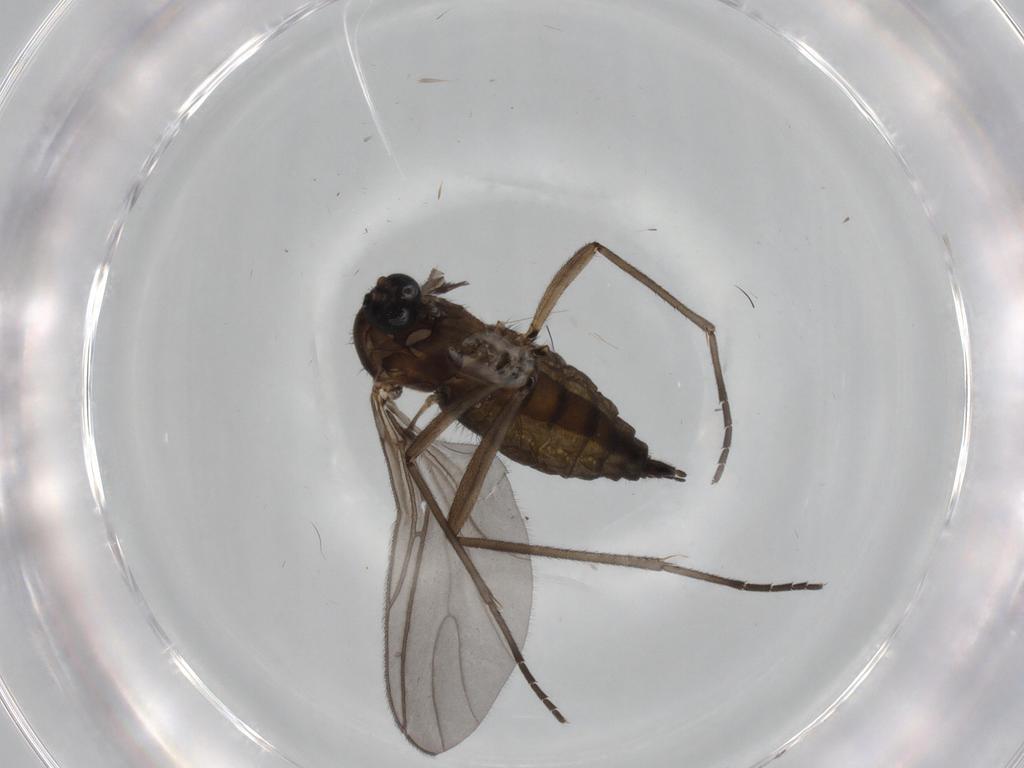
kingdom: Animalia
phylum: Arthropoda
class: Insecta
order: Diptera
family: Sciaridae
